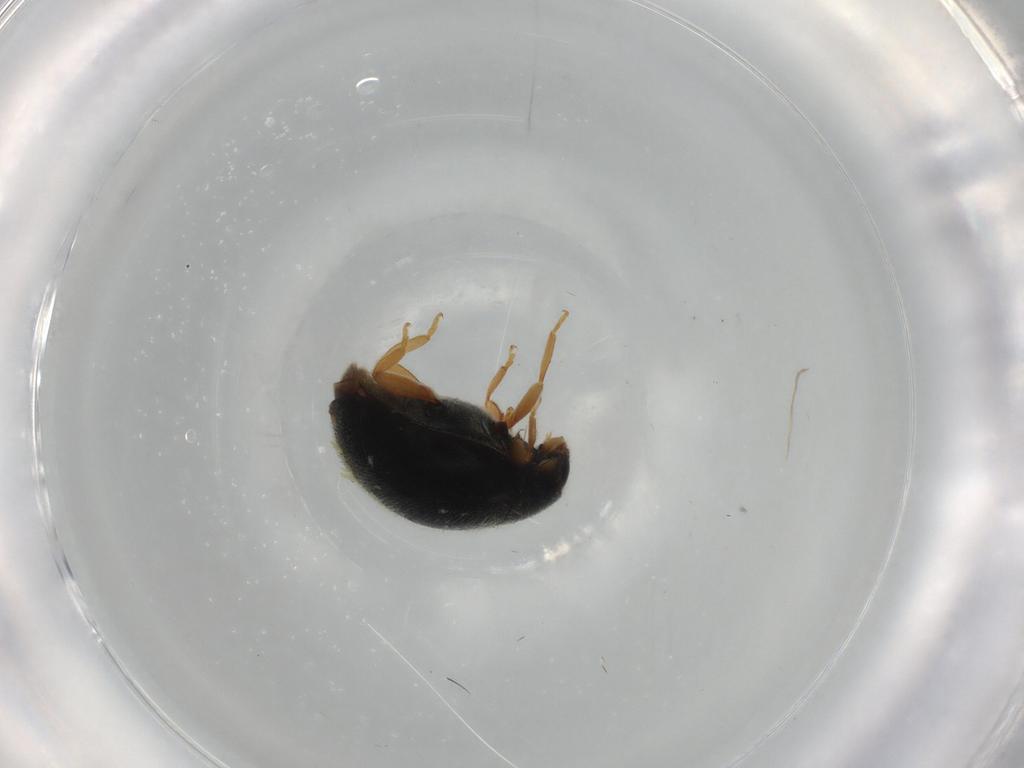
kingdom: Animalia
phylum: Arthropoda
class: Insecta
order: Coleoptera
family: Coccinellidae
